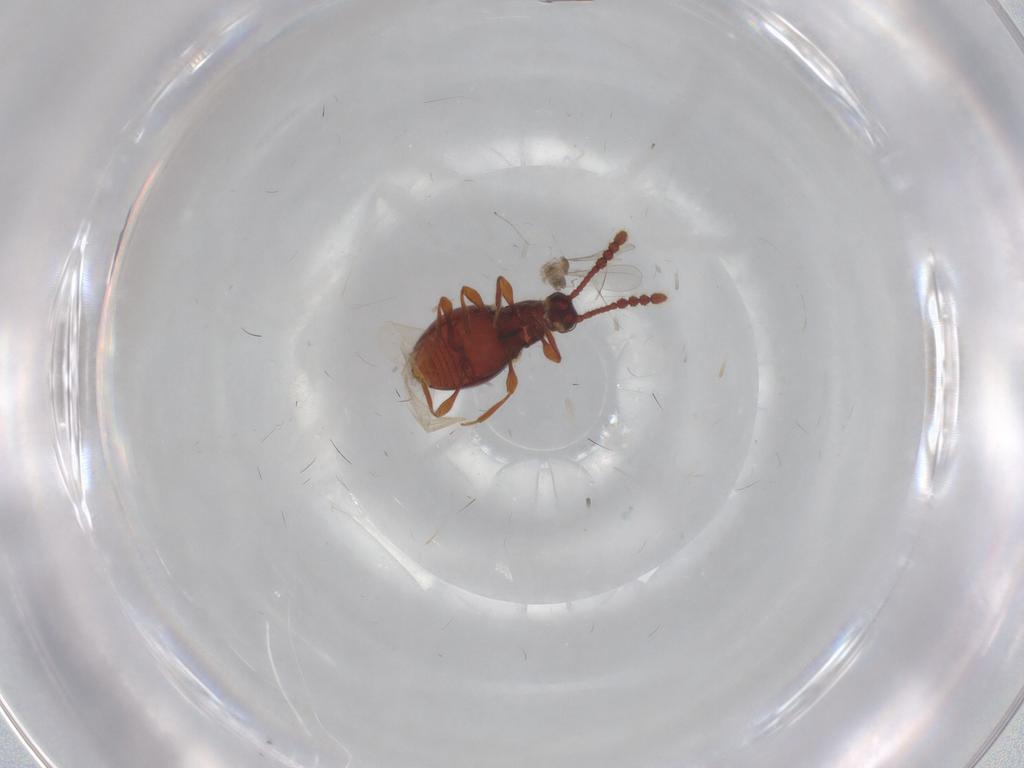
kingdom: Animalia
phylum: Arthropoda
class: Insecta
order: Coleoptera
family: Staphylinidae
